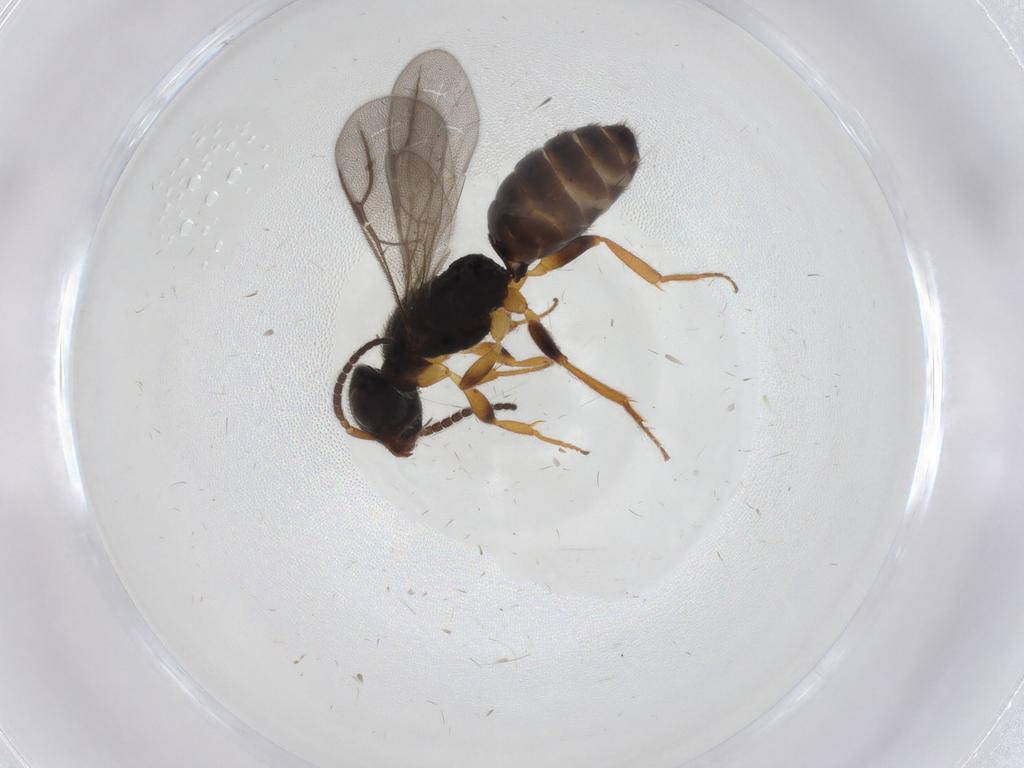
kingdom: Animalia
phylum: Arthropoda
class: Insecta
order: Hymenoptera
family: Bethylidae
